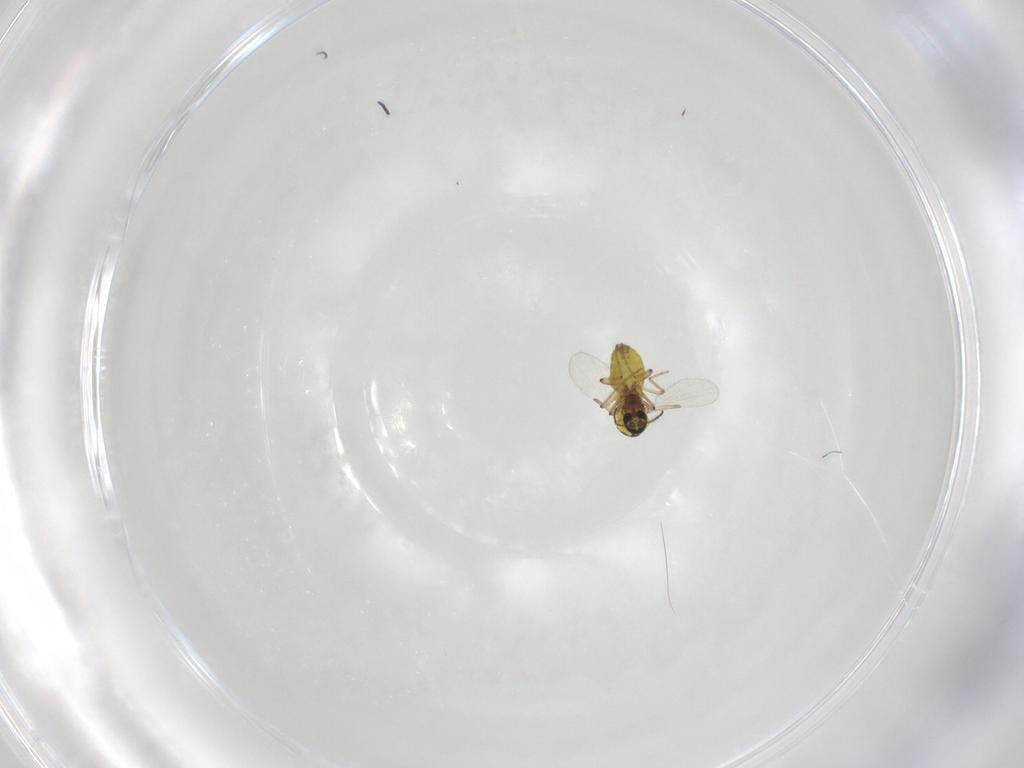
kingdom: Animalia
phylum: Arthropoda
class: Insecta
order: Diptera
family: Ceratopogonidae
